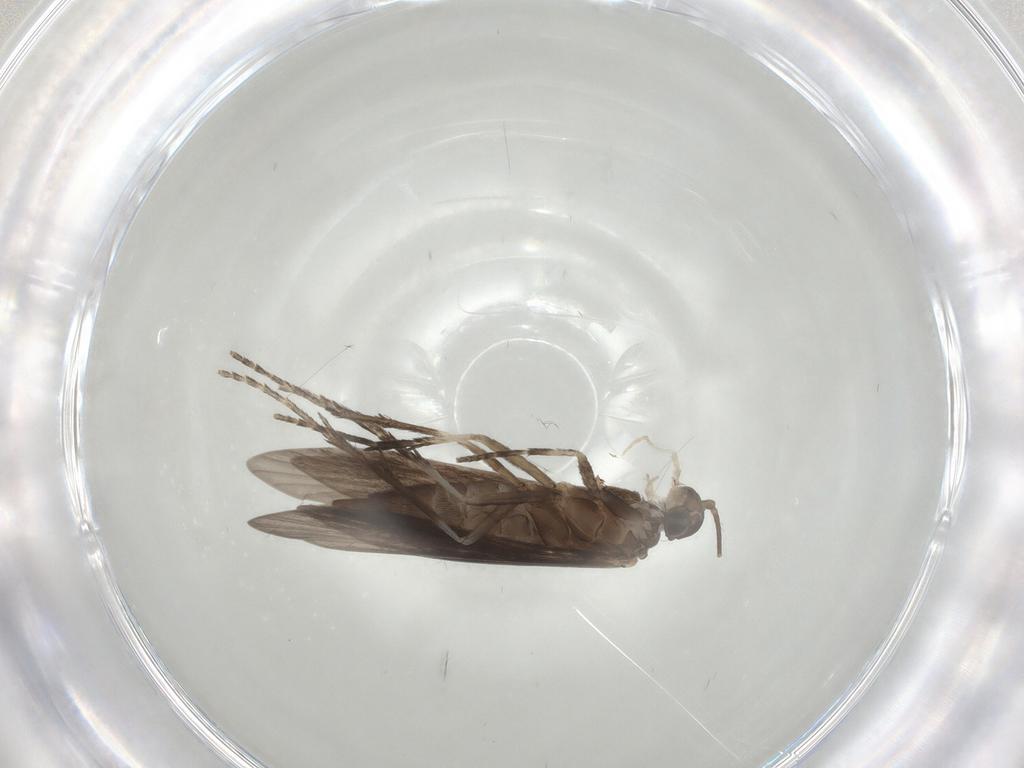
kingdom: Animalia
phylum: Arthropoda
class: Insecta
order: Trichoptera
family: Xiphocentronidae
